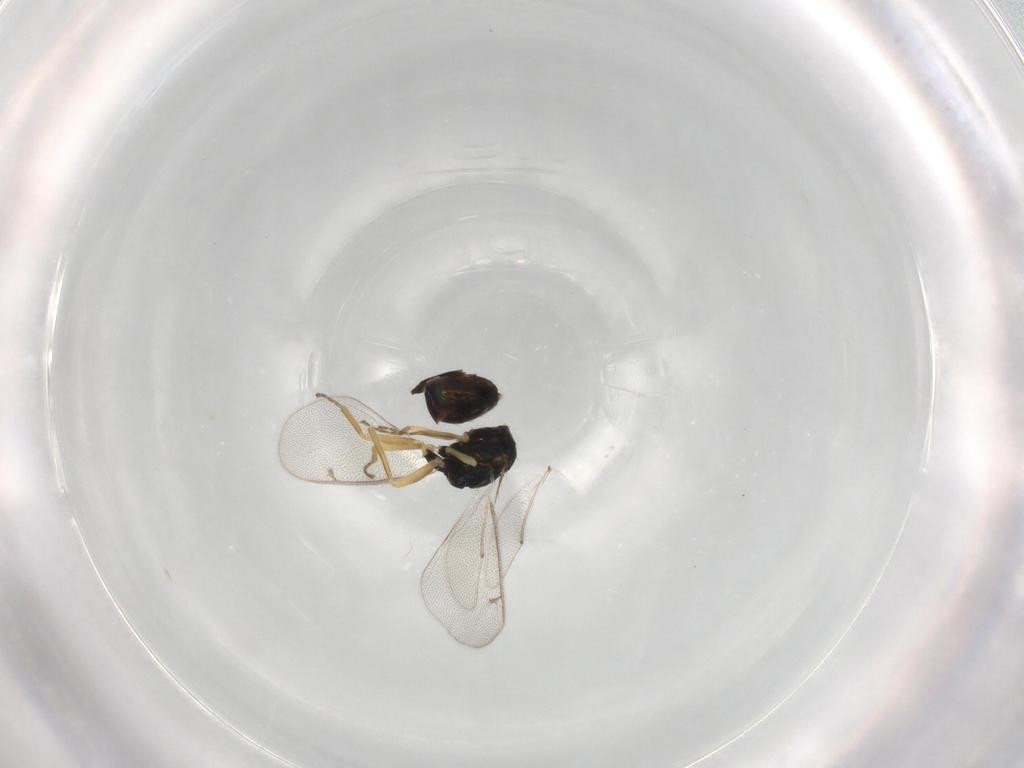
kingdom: Animalia
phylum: Arthropoda
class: Insecta
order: Hymenoptera
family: Eulophidae
